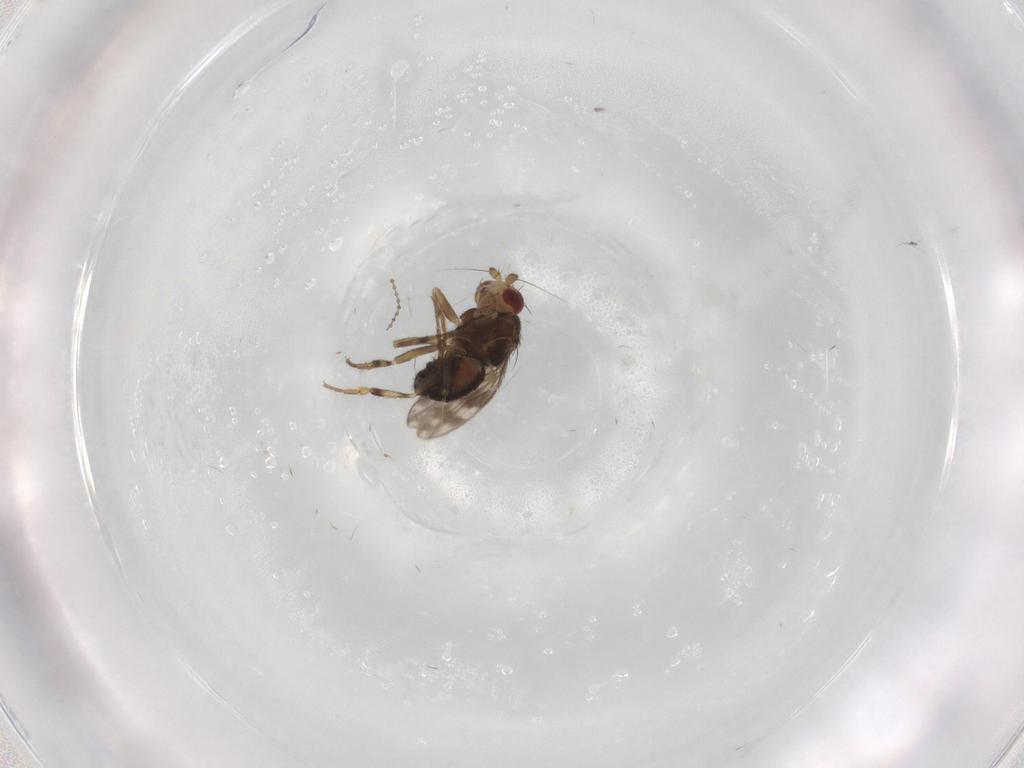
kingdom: Animalia
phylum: Arthropoda
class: Insecta
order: Diptera
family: Sphaeroceridae
